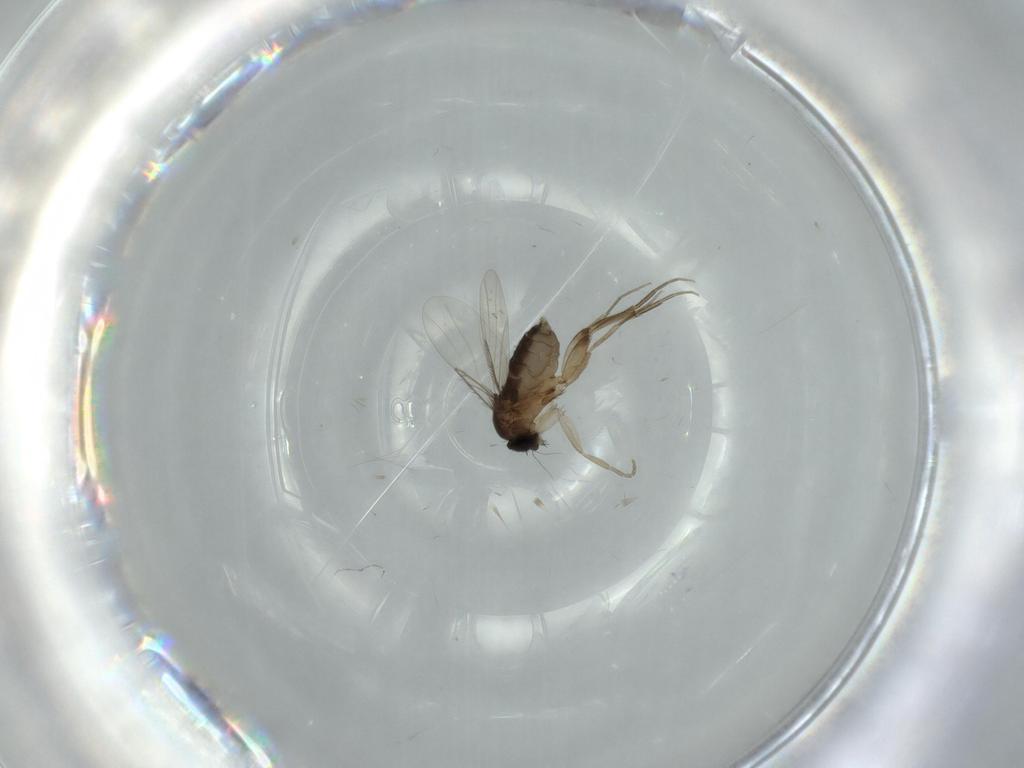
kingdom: Animalia
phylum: Arthropoda
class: Insecta
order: Diptera
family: Phoridae
